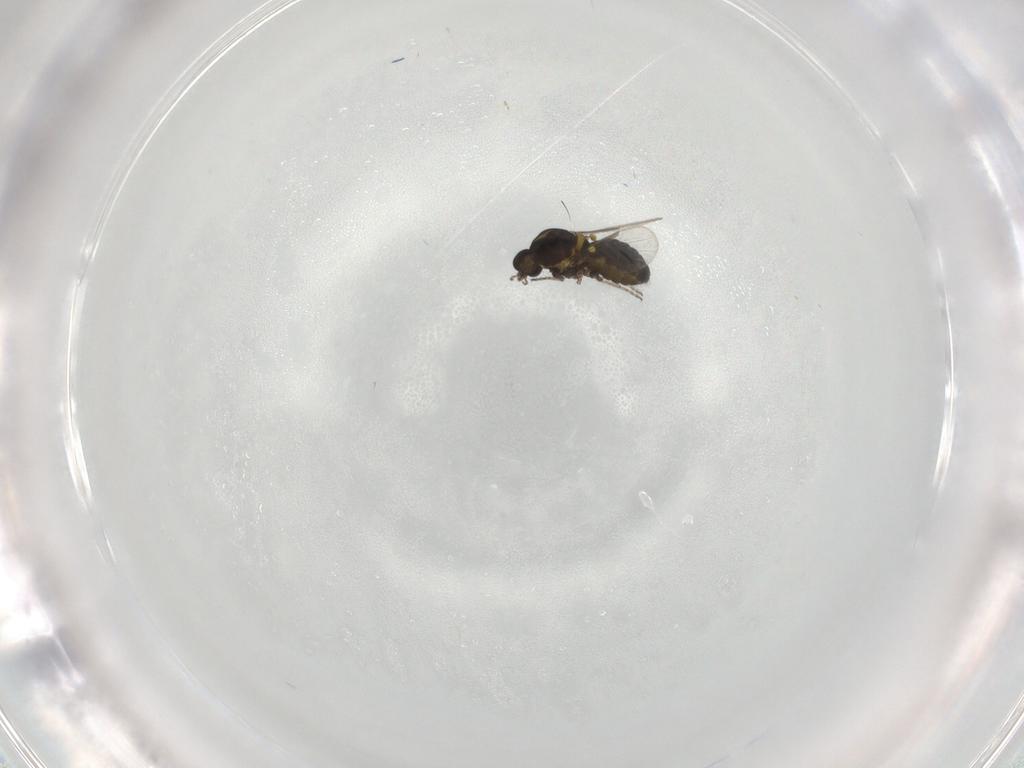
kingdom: Animalia
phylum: Arthropoda
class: Insecta
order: Diptera
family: Ceratopogonidae
